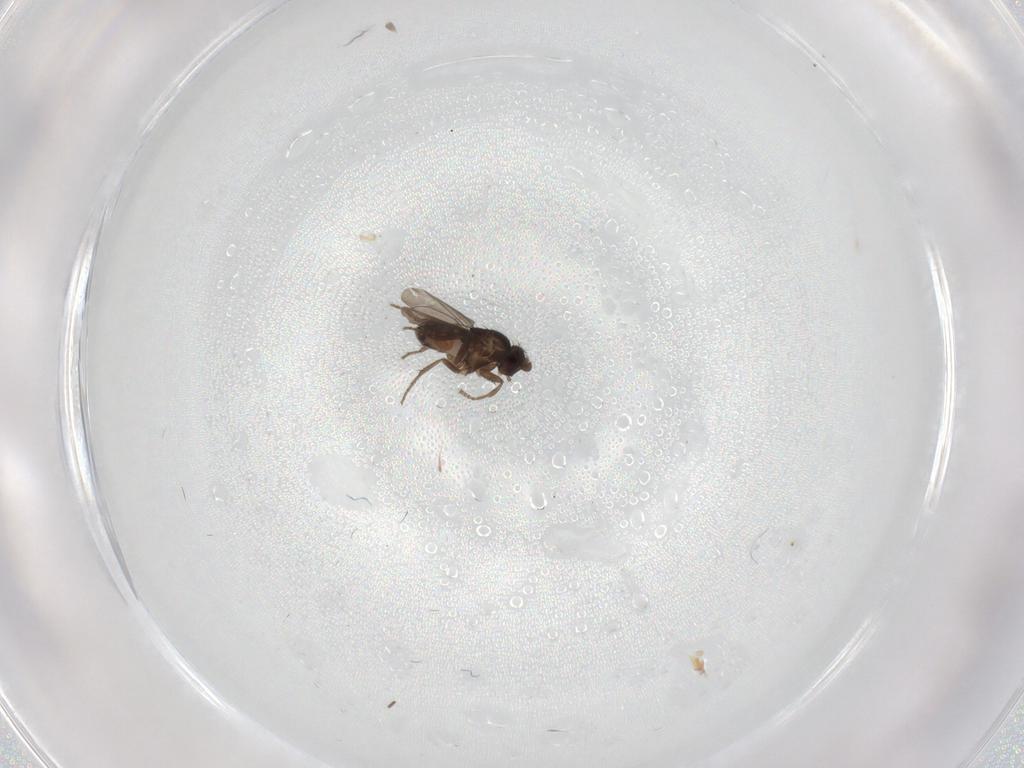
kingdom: Animalia
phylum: Arthropoda
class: Insecta
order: Diptera
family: Sphaeroceridae
